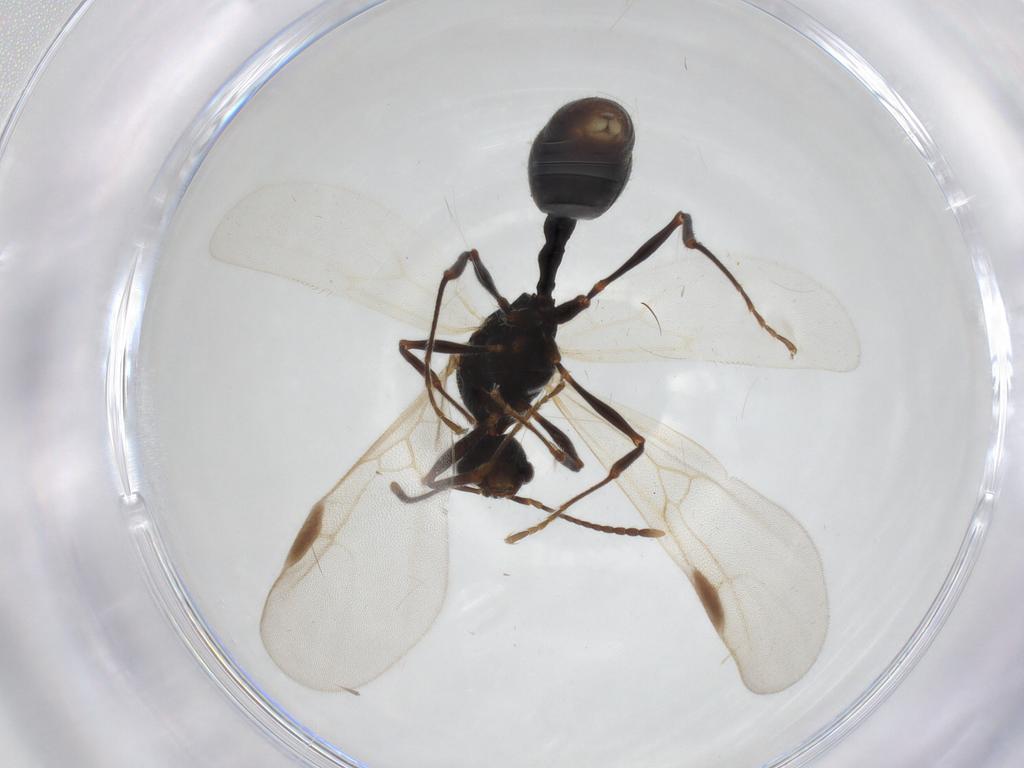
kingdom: Animalia
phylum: Arthropoda
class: Insecta
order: Hymenoptera
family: Formicidae
